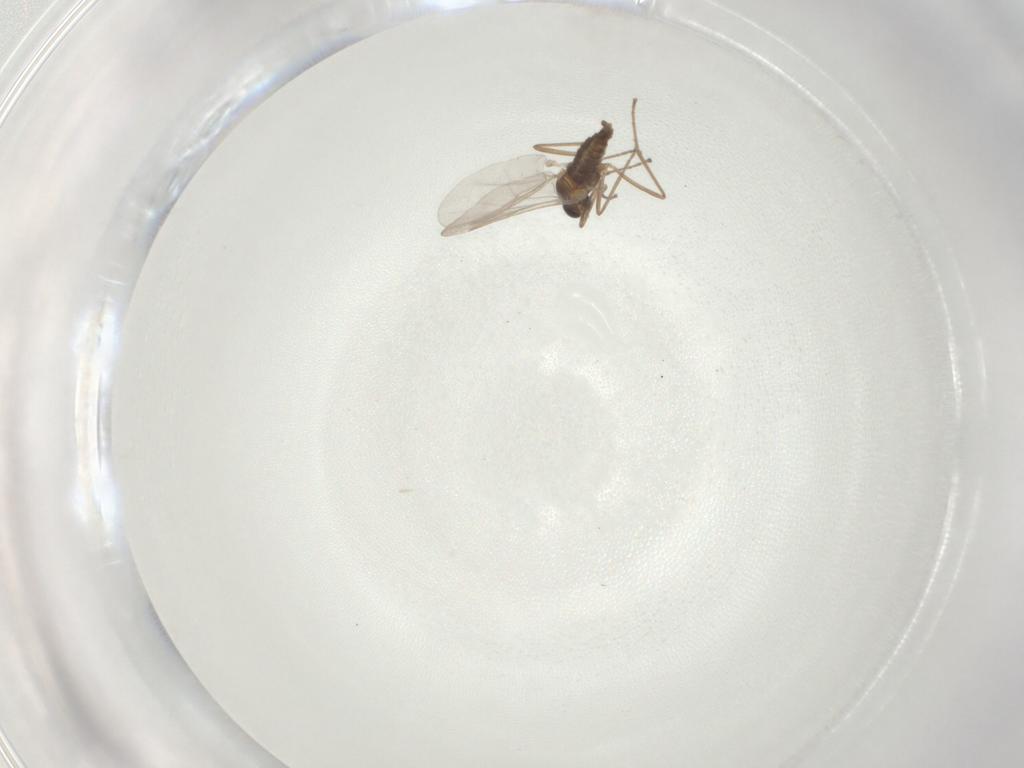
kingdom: Animalia
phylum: Arthropoda
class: Insecta
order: Diptera
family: Cecidomyiidae
